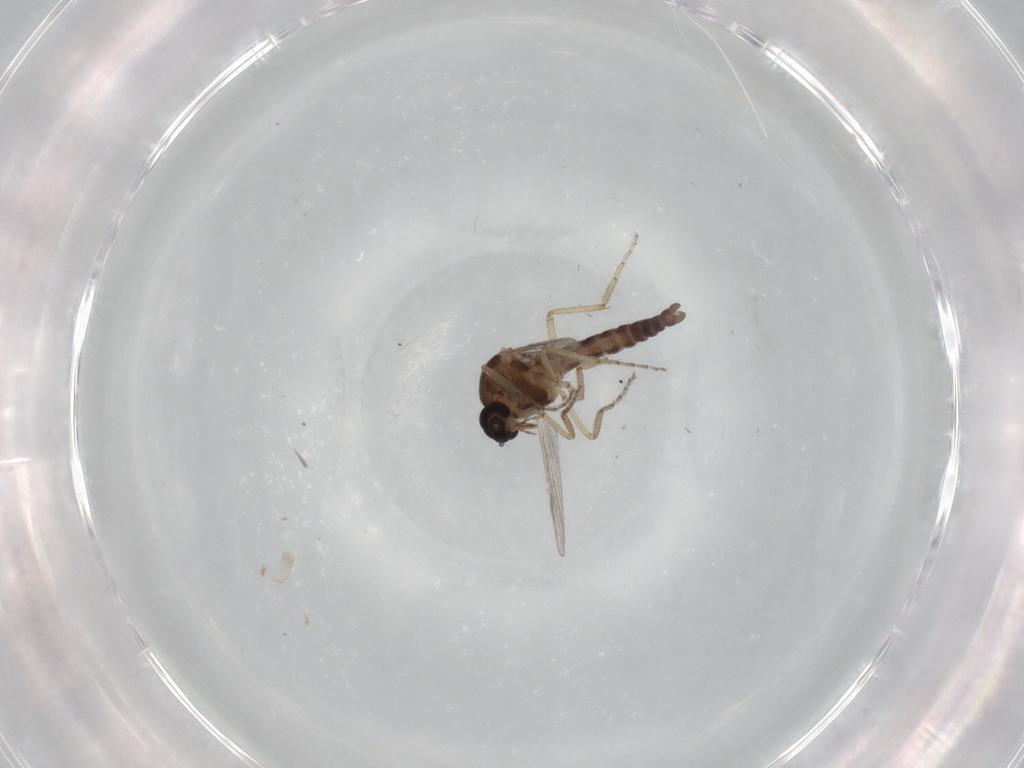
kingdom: Animalia
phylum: Arthropoda
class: Insecta
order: Diptera
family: Ceratopogonidae
